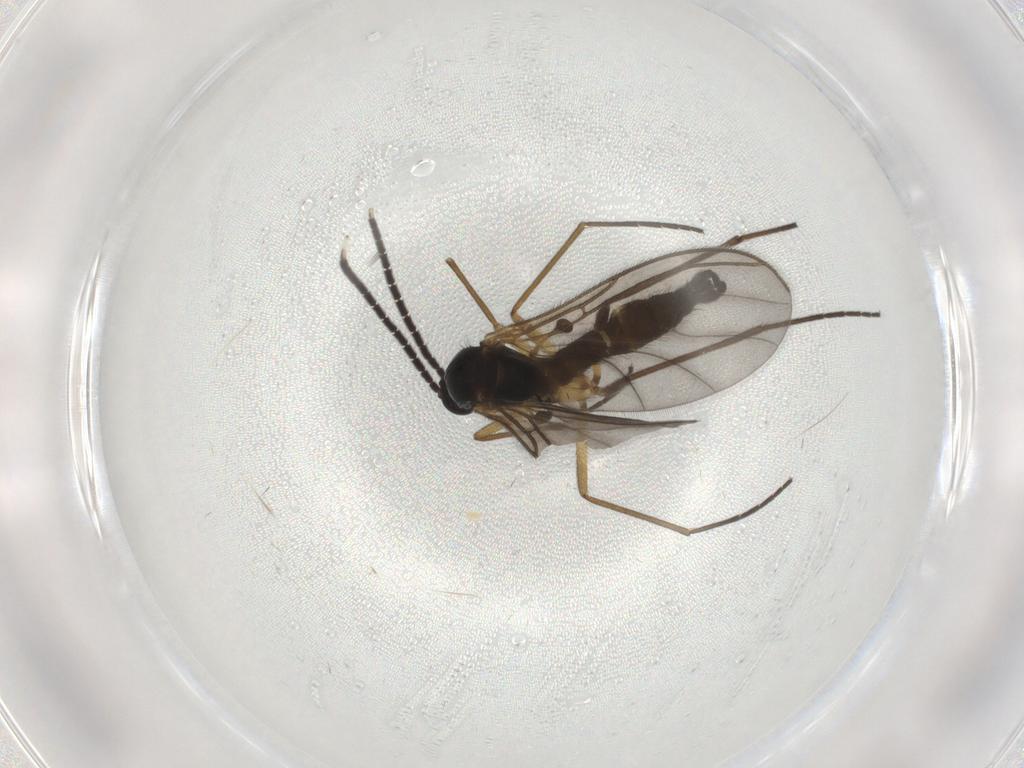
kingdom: Animalia
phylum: Arthropoda
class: Insecta
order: Diptera
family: Sciaridae
